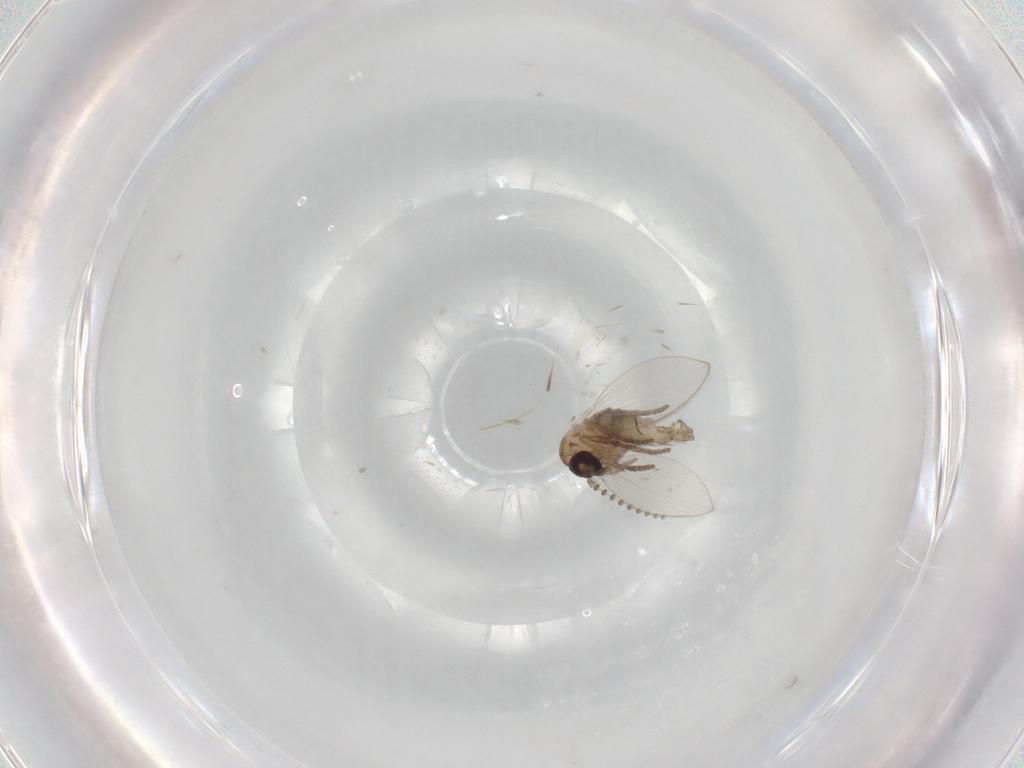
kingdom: Animalia
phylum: Arthropoda
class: Insecta
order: Diptera
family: Psychodidae
